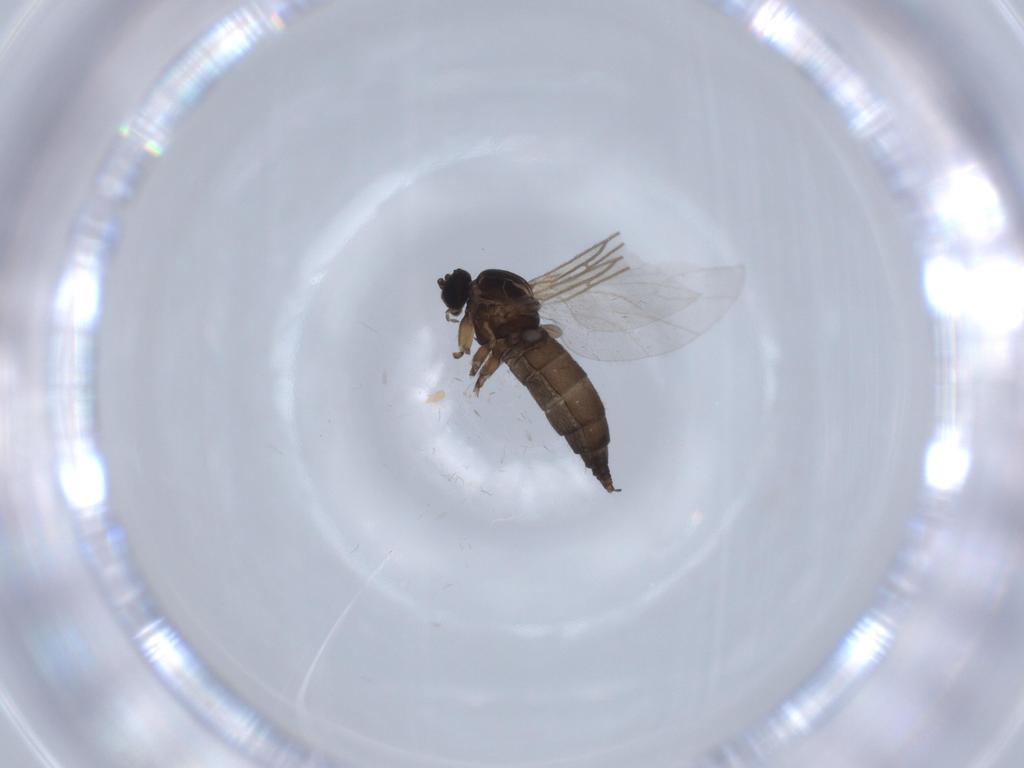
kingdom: Animalia
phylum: Arthropoda
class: Insecta
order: Diptera
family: Sciaridae
